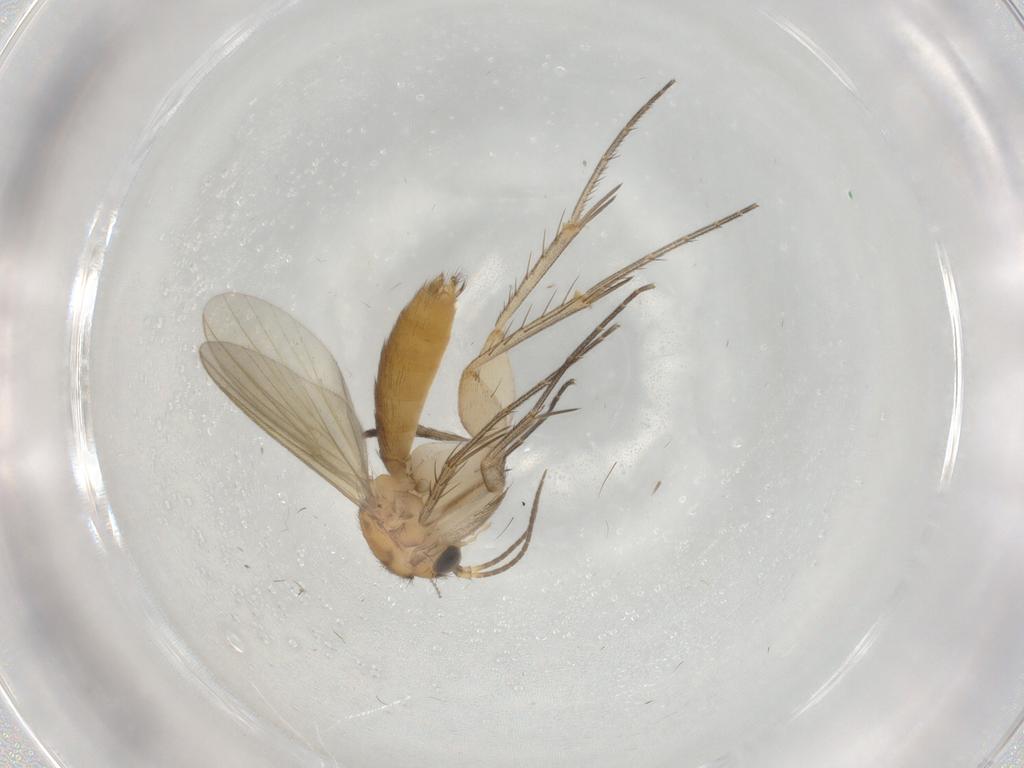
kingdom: Animalia
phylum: Arthropoda
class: Insecta
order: Diptera
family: Mycetophilidae
